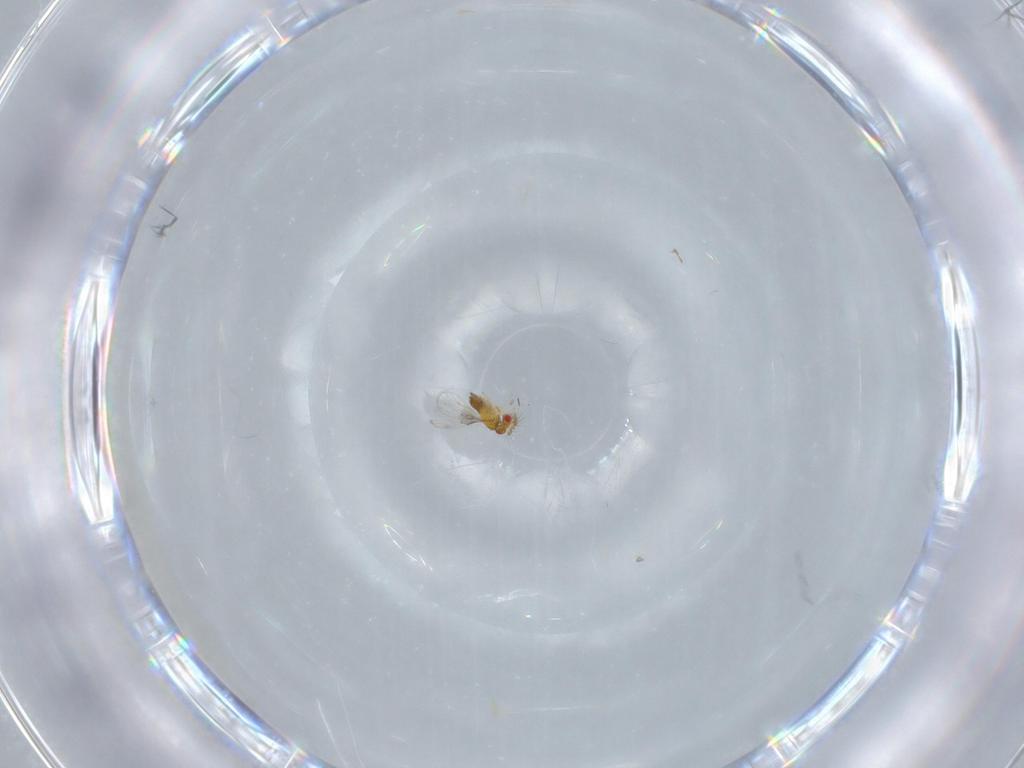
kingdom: Animalia
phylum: Arthropoda
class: Insecta
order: Hymenoptera
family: Trichogrammatidae
